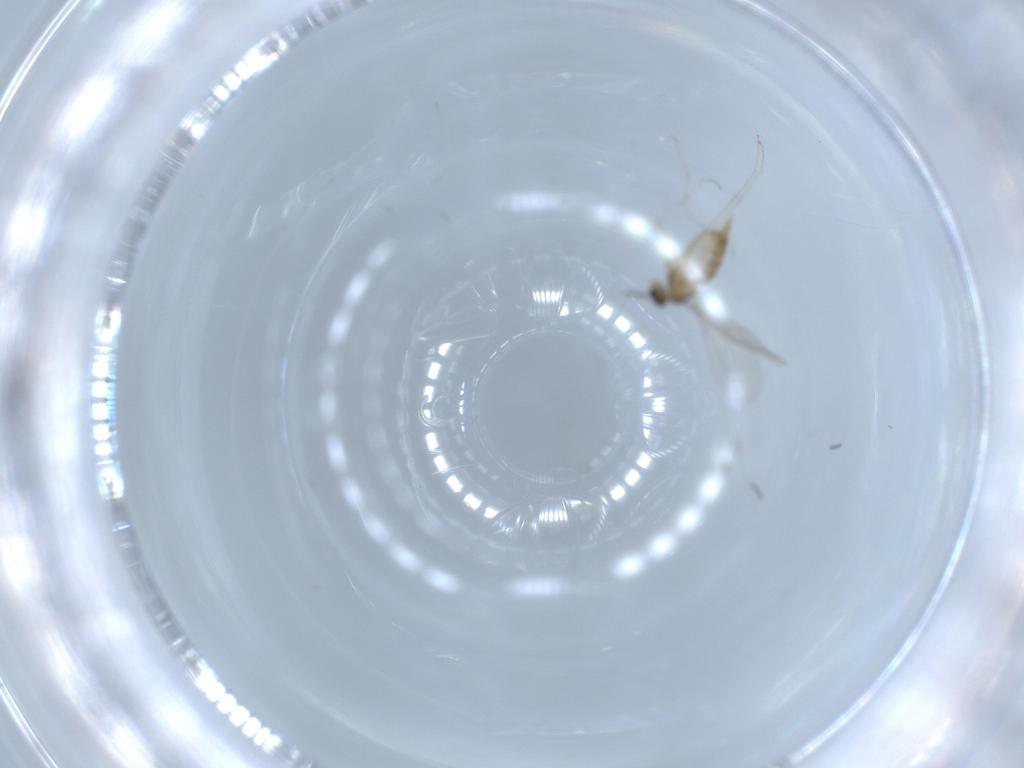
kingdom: Animalia
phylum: Arthropoda
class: Insecta
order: Diptera
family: Cecidomyiidae
